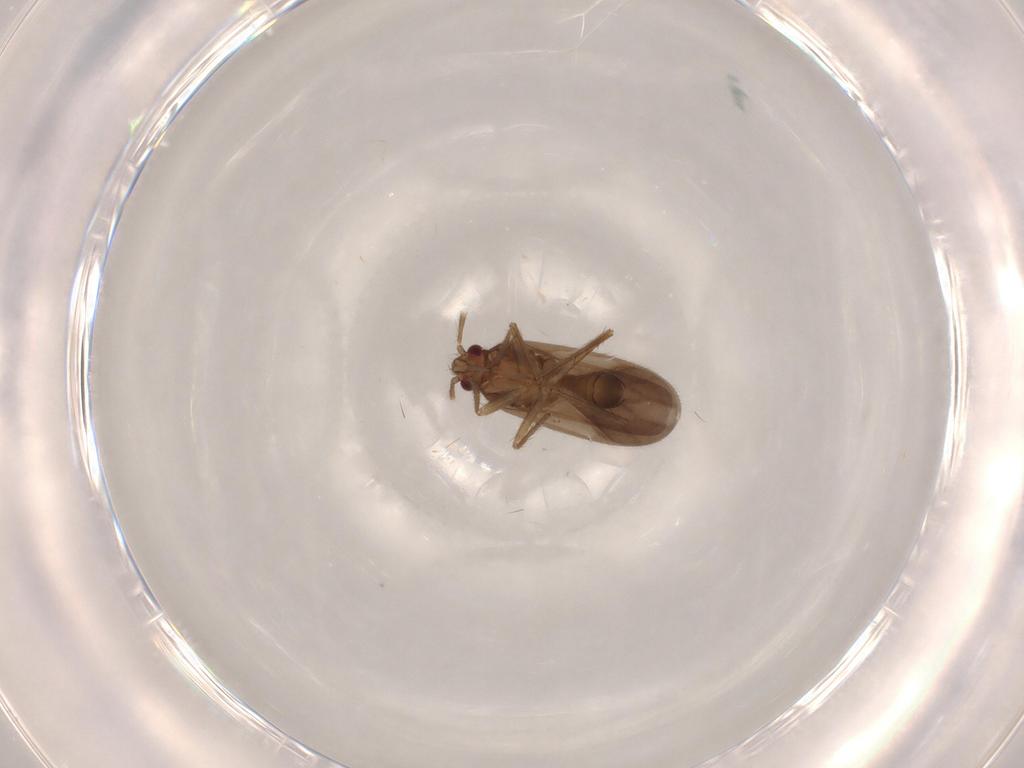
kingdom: Animalia
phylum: Arthropoda
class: Insecta
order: Hemiptera
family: Ceratocombidae
